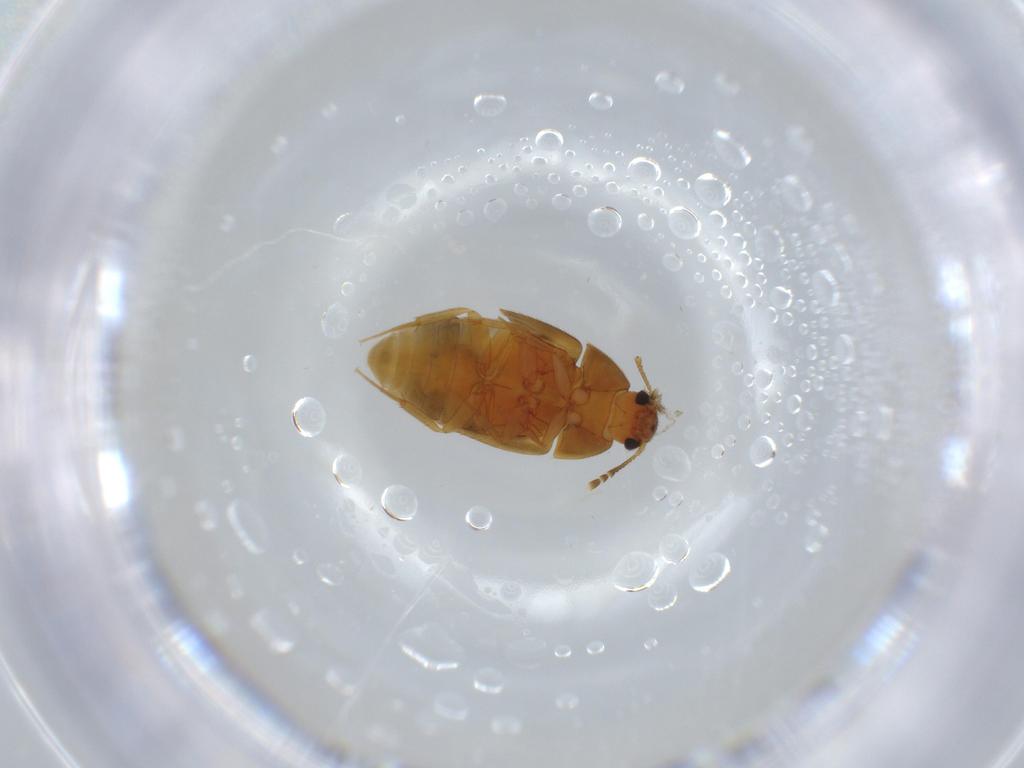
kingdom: Animalia
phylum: Arthropoda
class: Insecta
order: Coleoptera
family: Mycetophagidae
